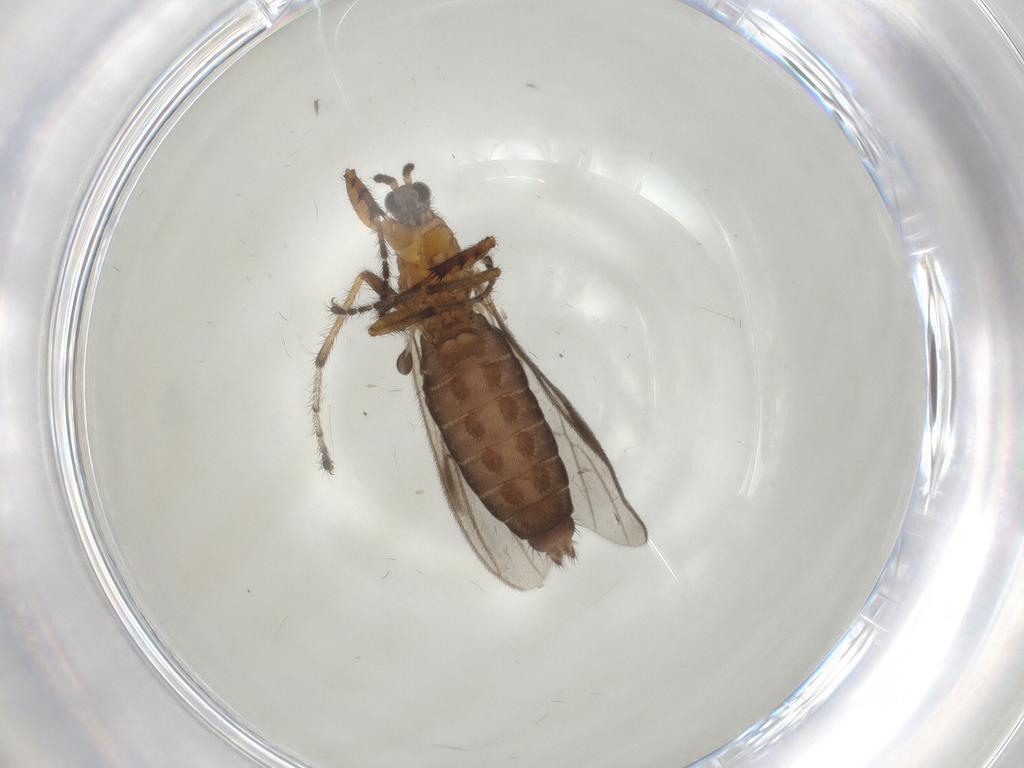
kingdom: Animalia
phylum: Arthropoda
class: Insecta
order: Diptera
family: Bibionidae
